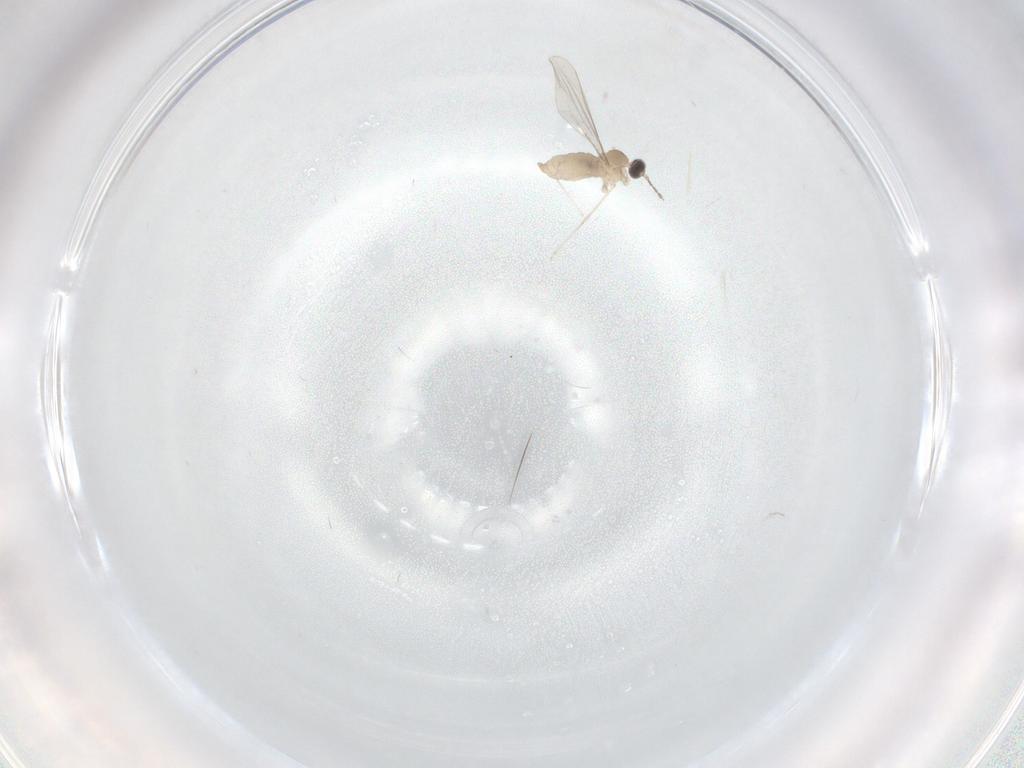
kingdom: Animalia
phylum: Arthropoda
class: Insecta
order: Diptera
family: Cecidomyiidae
